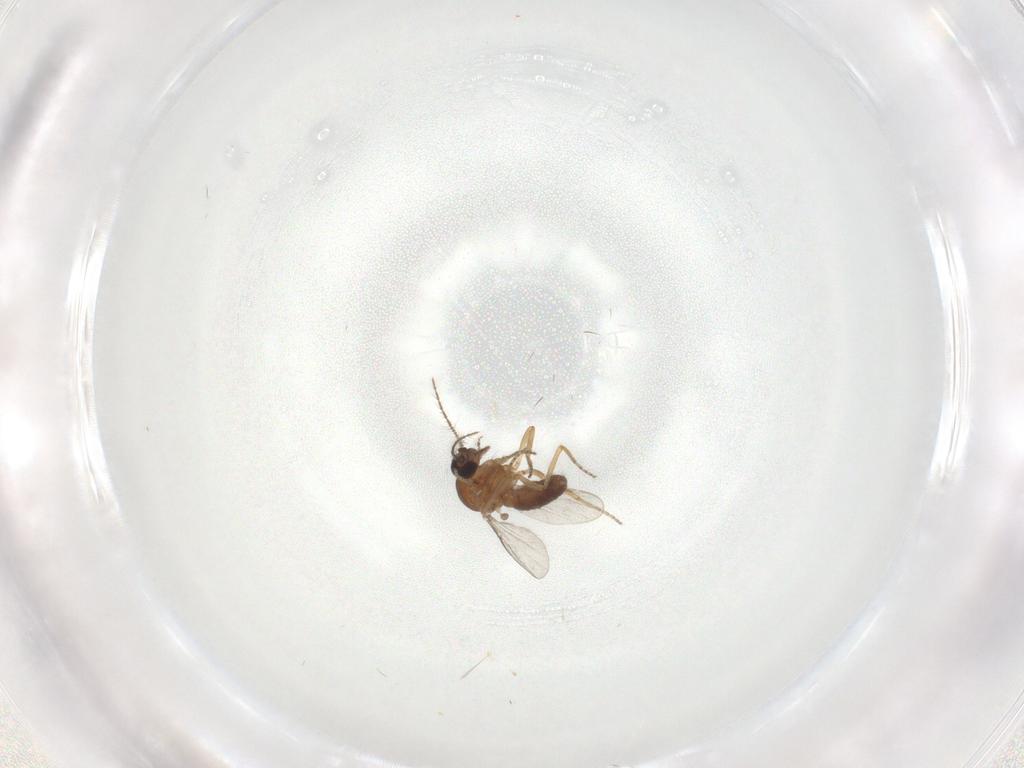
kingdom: Animalia
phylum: Arthropoda
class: Insecta
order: Diptera
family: Ceratopogonidae
